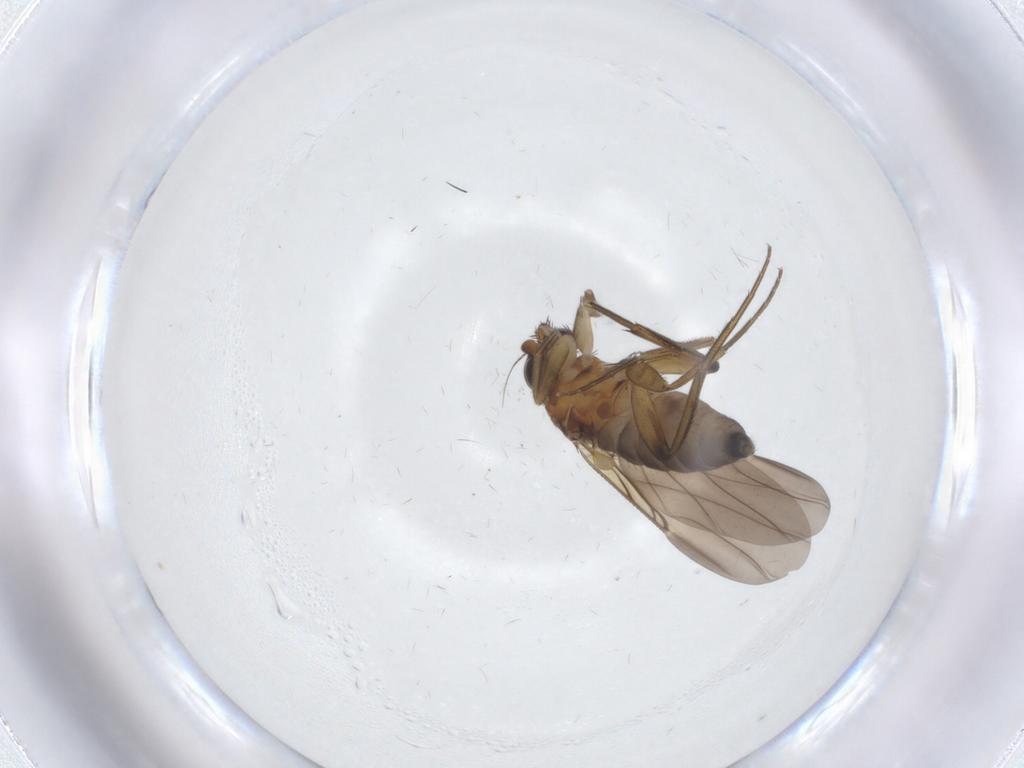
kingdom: Animalia
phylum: Arthropoda
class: Insecta
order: Diptera
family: Phoridae
